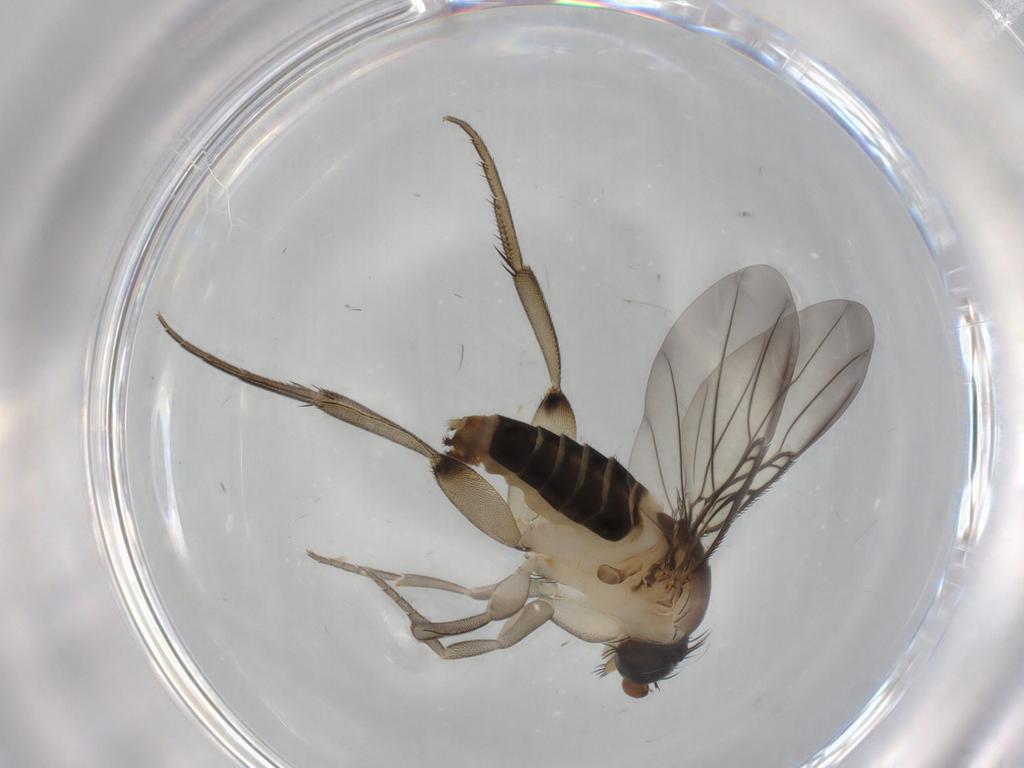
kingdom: Animalia
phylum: Arthropoda
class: Insecta
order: Diptera
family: Phoridae
